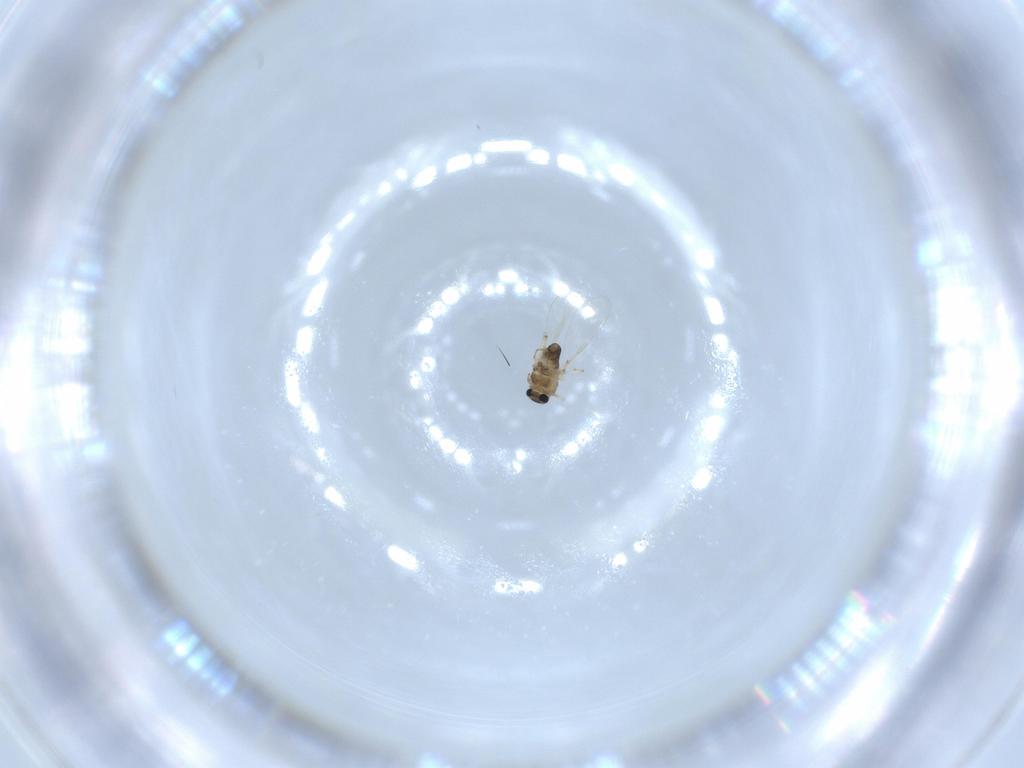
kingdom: Animalia
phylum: Arthropoda
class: Insecta
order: Diptera
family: Chironomidae
